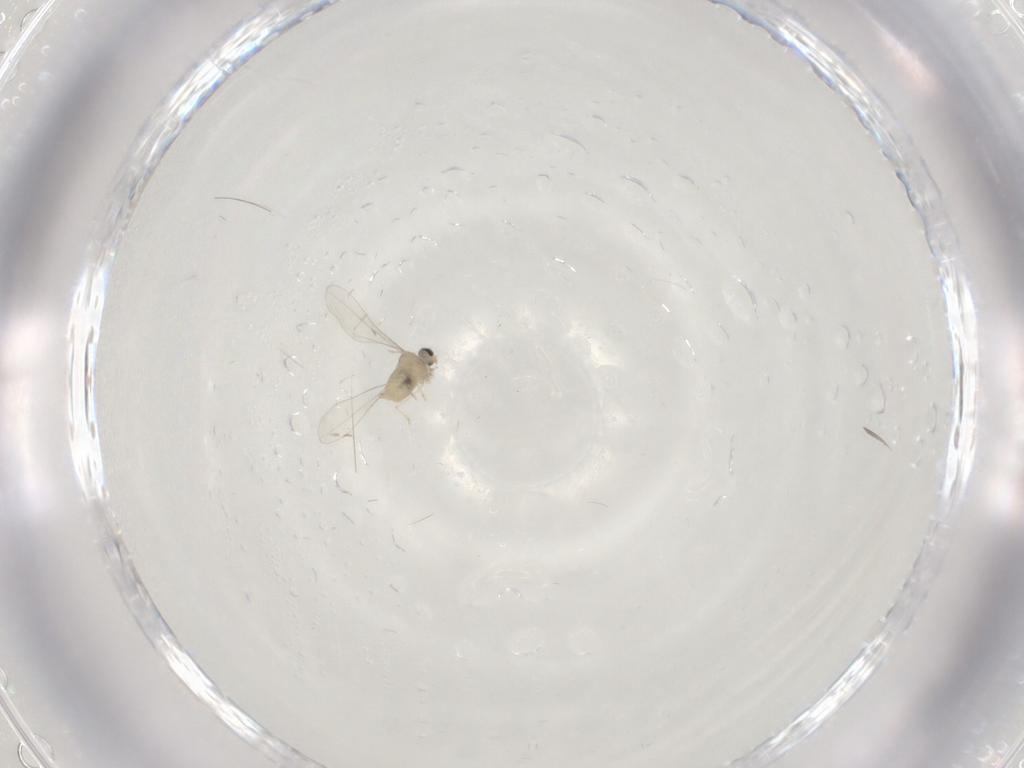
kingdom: Animalia
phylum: Arthropoda
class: Insecta
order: Diptera
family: Cecidomyiidae
